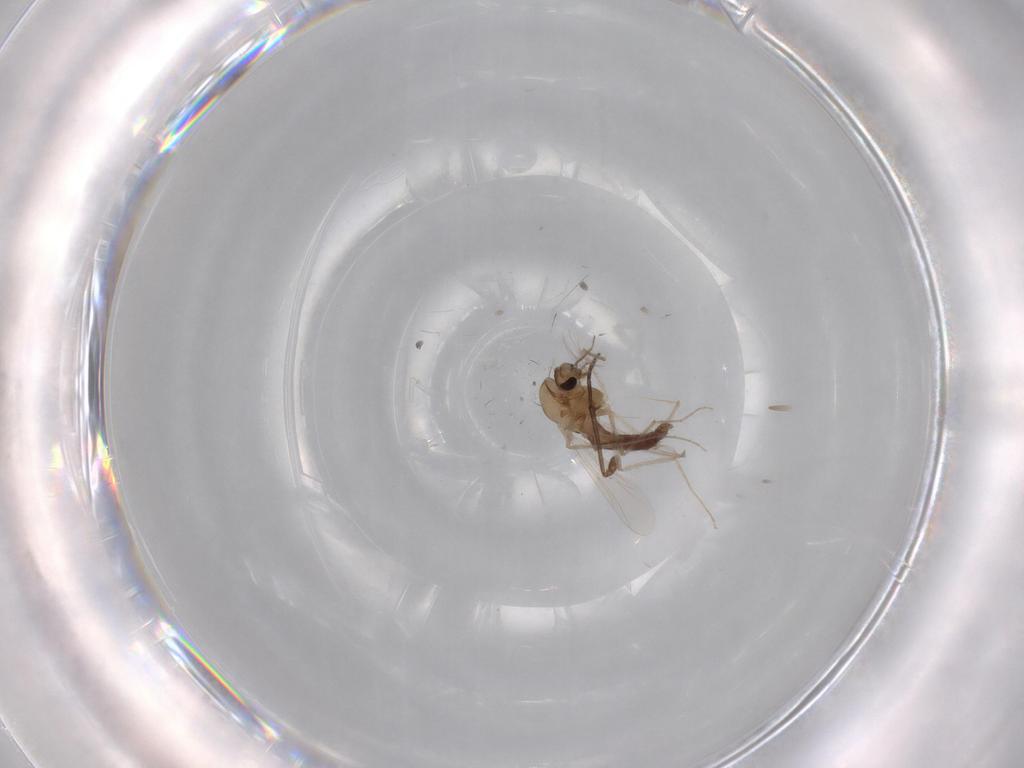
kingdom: Animalia
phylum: Arthropoda
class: Insecta
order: Diptera
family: Chironomidae
